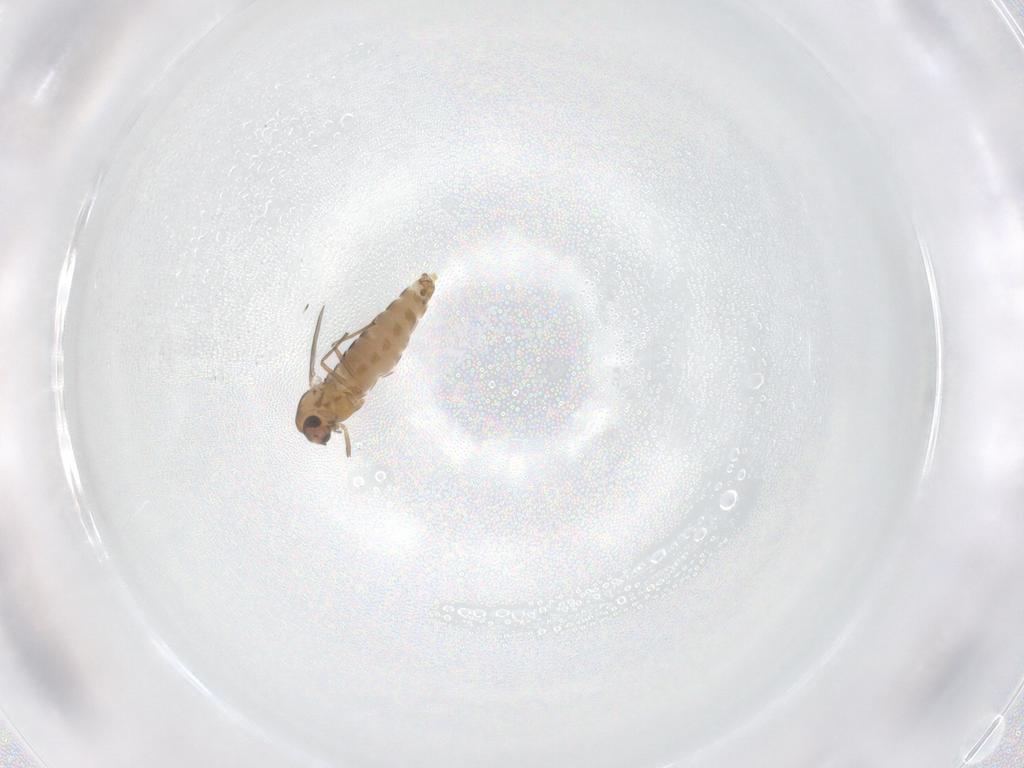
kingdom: Animalia
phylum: Arthropoda
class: Insecta
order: Diptera
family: Chironomidae
